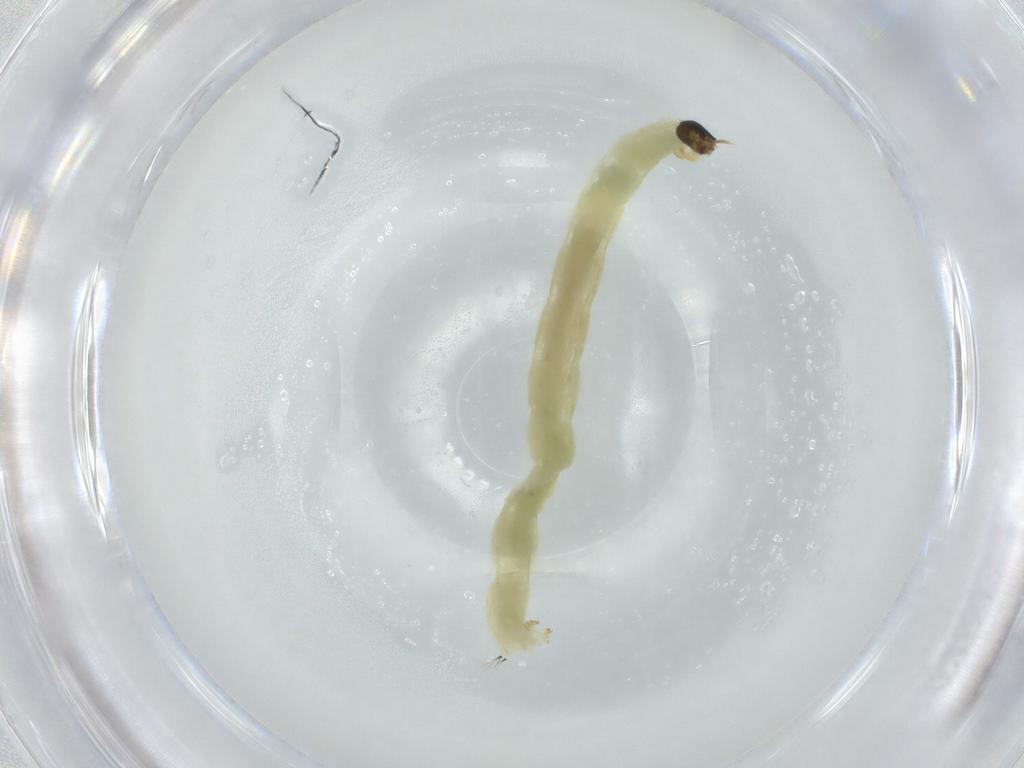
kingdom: Animalia
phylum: Arthropoda
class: Insecta
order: Diptera
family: Chironomidae
